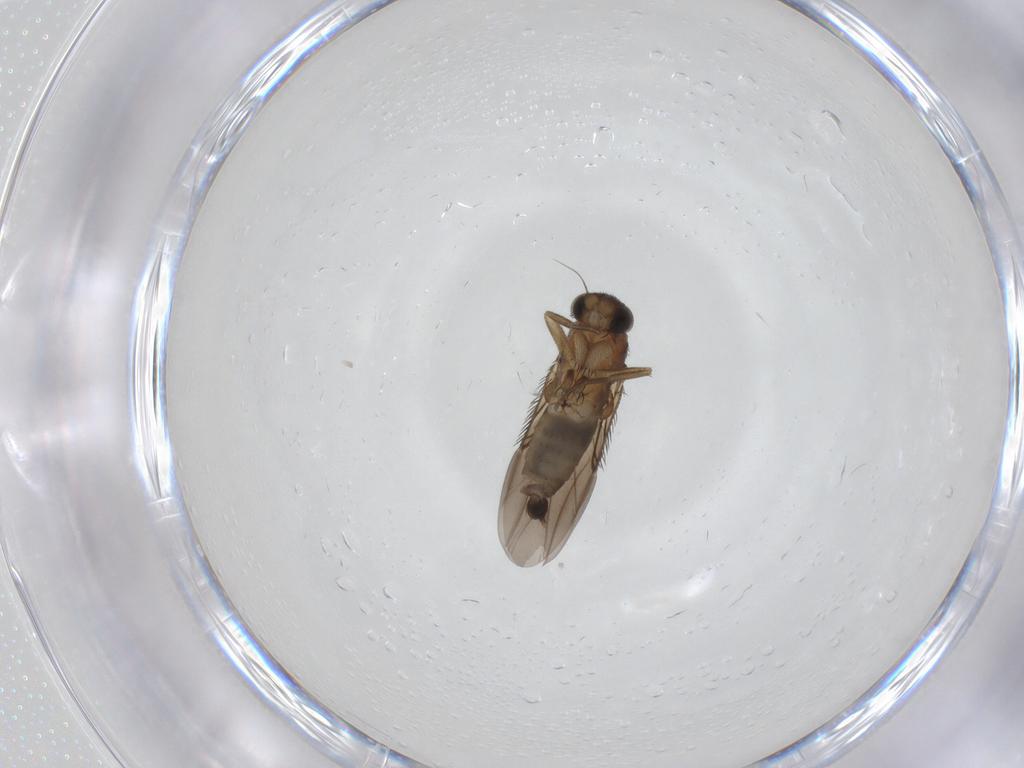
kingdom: Animalia
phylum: Arthropoda
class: Insecta
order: Diptera
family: Phoridae
